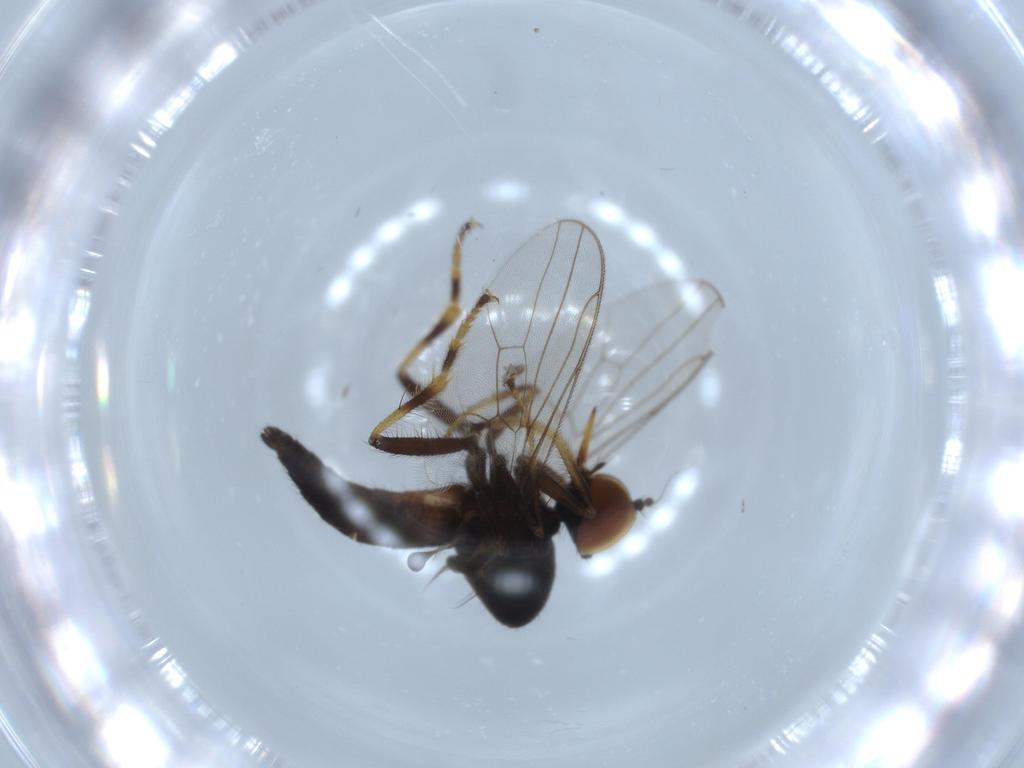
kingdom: Animalia
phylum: Arthropoda
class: Insecta
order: Diptera
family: Hybotidae
